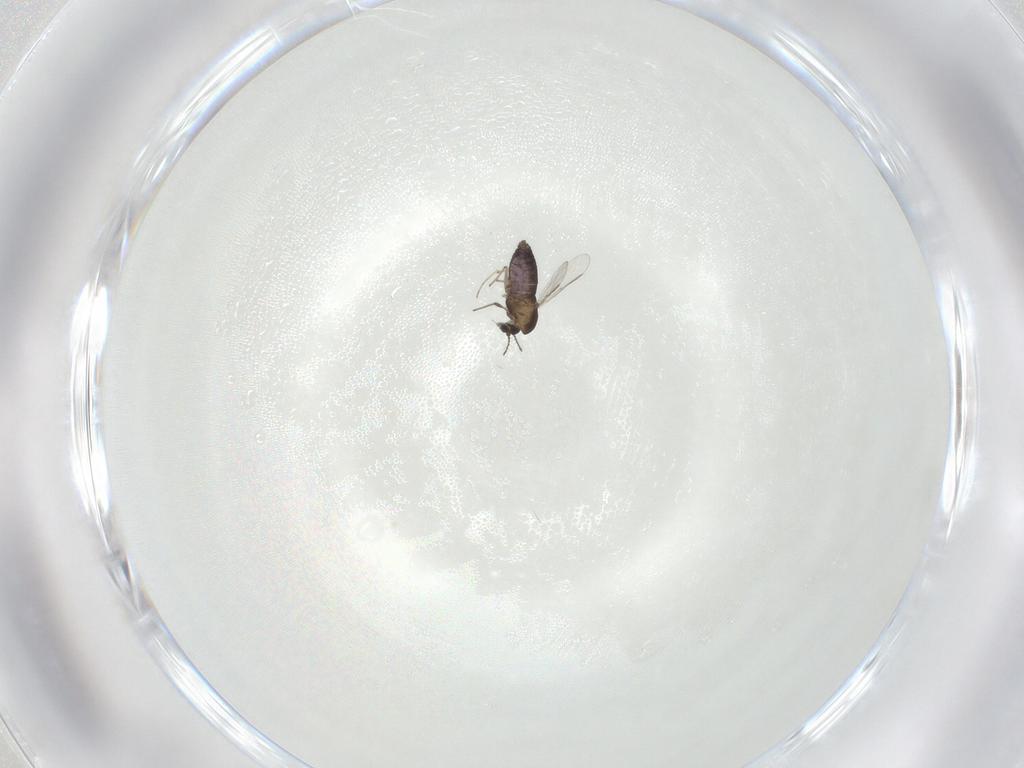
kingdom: Animalia
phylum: Arthropoda
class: Insecta
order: Diptera
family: Chironomidae
